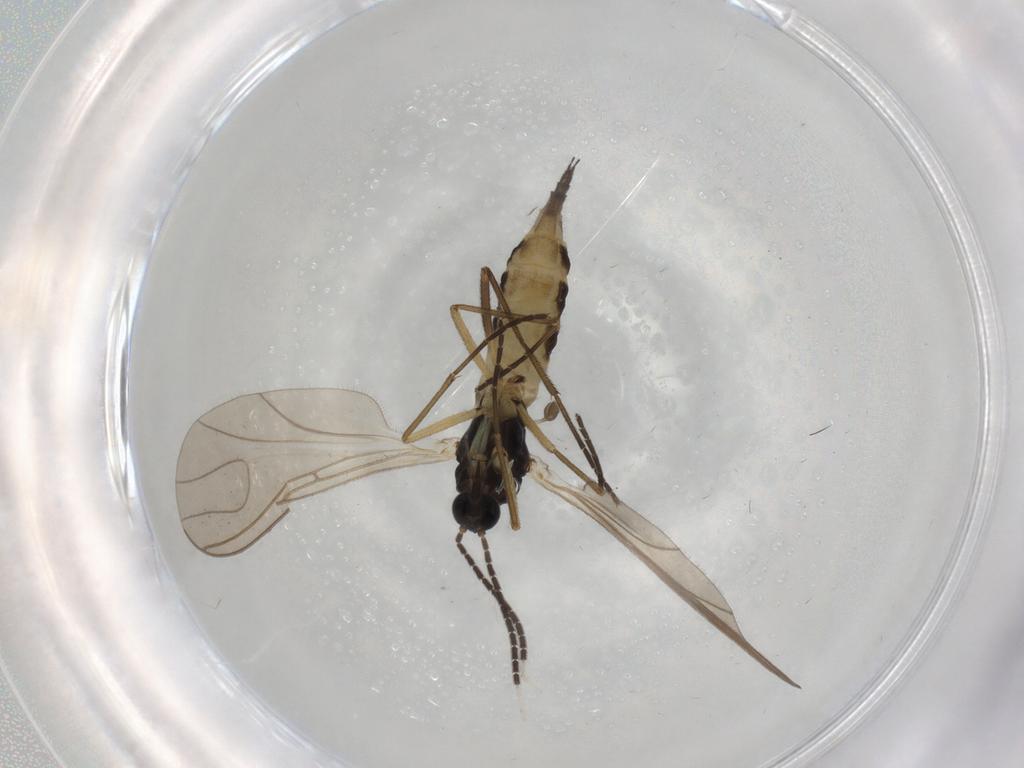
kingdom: Animalia
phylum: Arthropoda
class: Insecta
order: Diptera
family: Sciaridae
